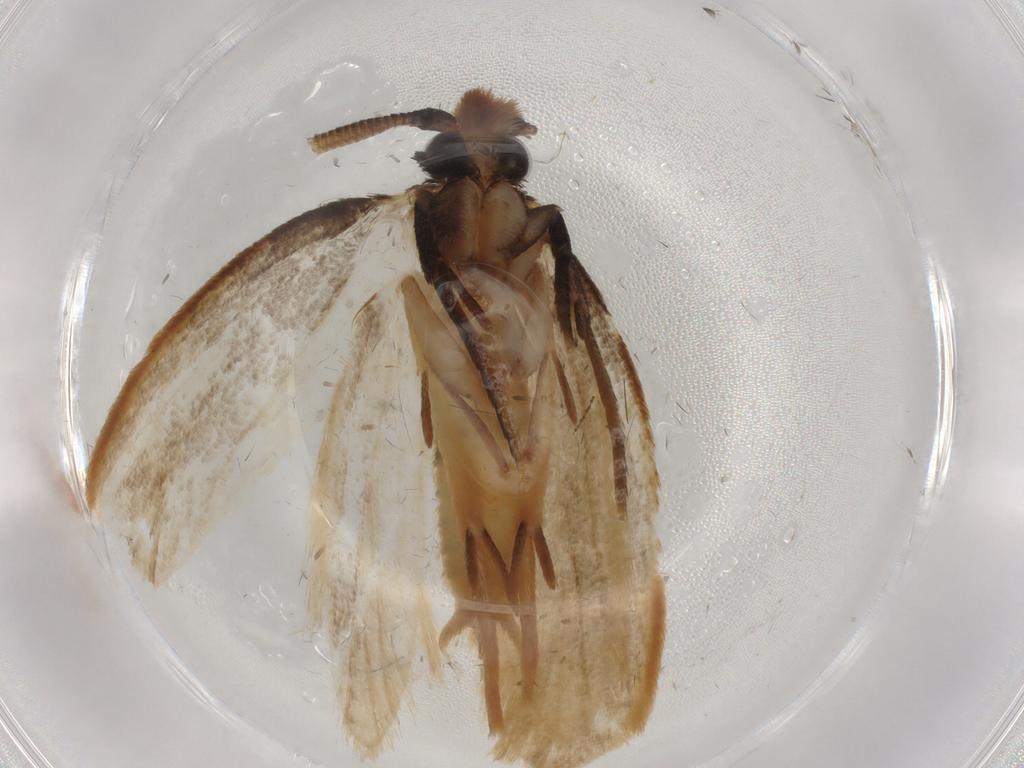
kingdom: Animalia
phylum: Arthropoda
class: Insecta
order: Lepidoptera
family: Tineidae
